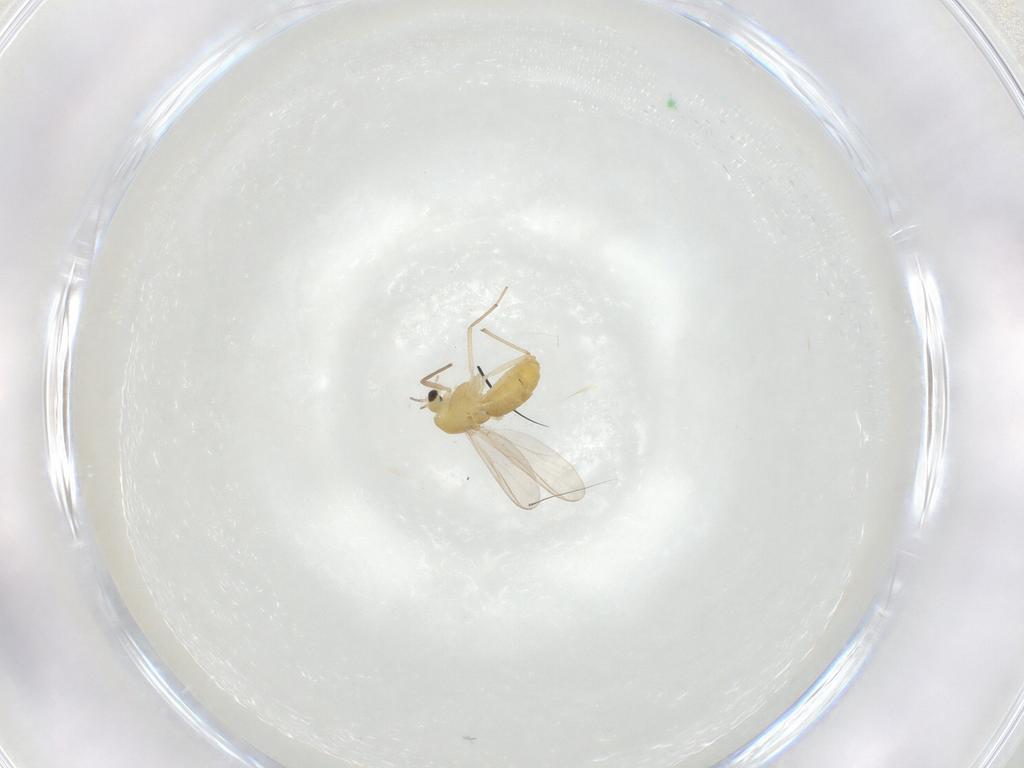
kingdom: Animalia
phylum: Arthropoda
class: Insecta
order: Diptera
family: Chironomidae
